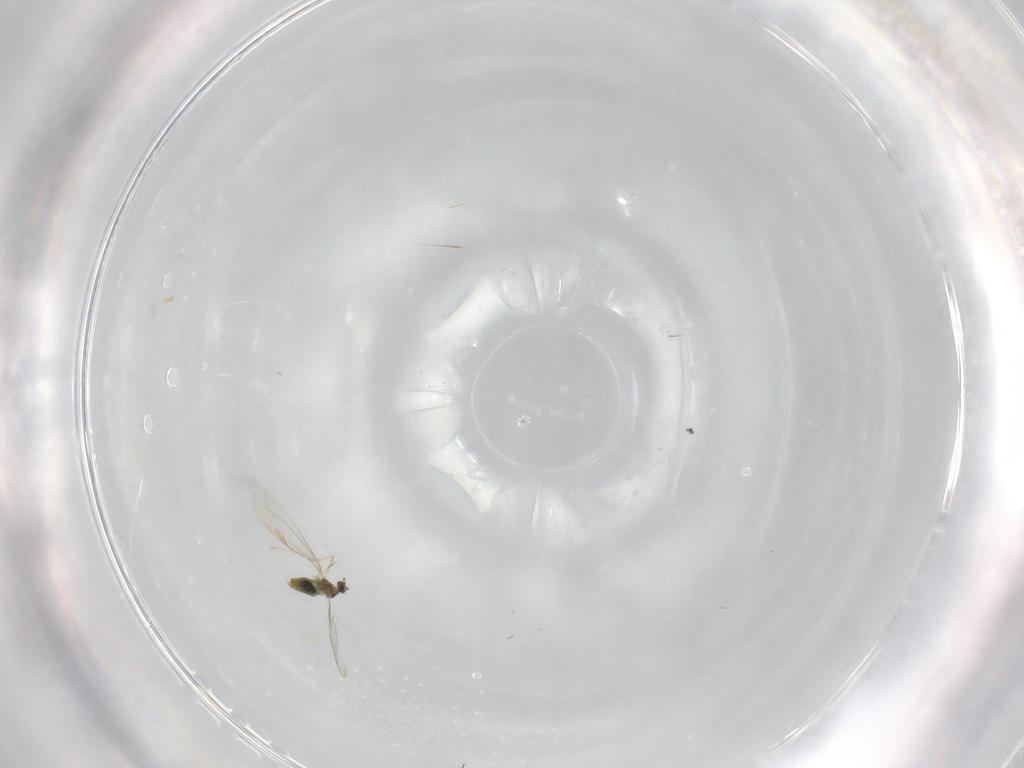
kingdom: Animalia
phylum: Arthropoda
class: Insecta
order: Diptera
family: Cecidomyiidae
